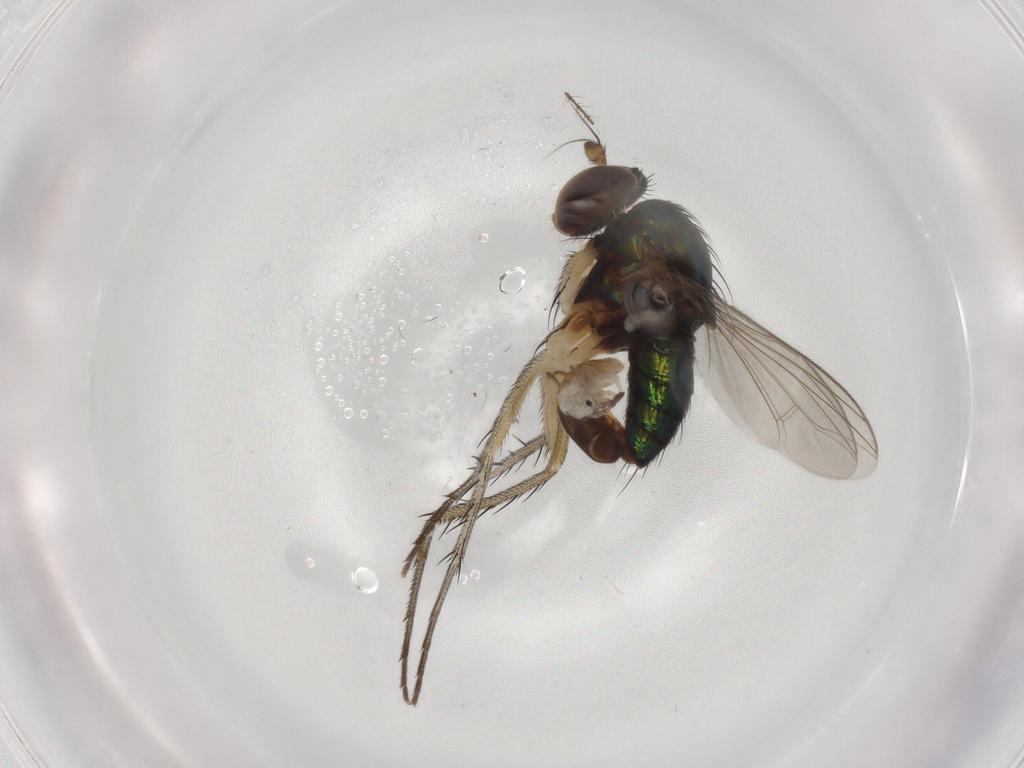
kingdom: Animalia
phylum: Arthropoda
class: Insecta
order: Diptera
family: Dolichopodidae
